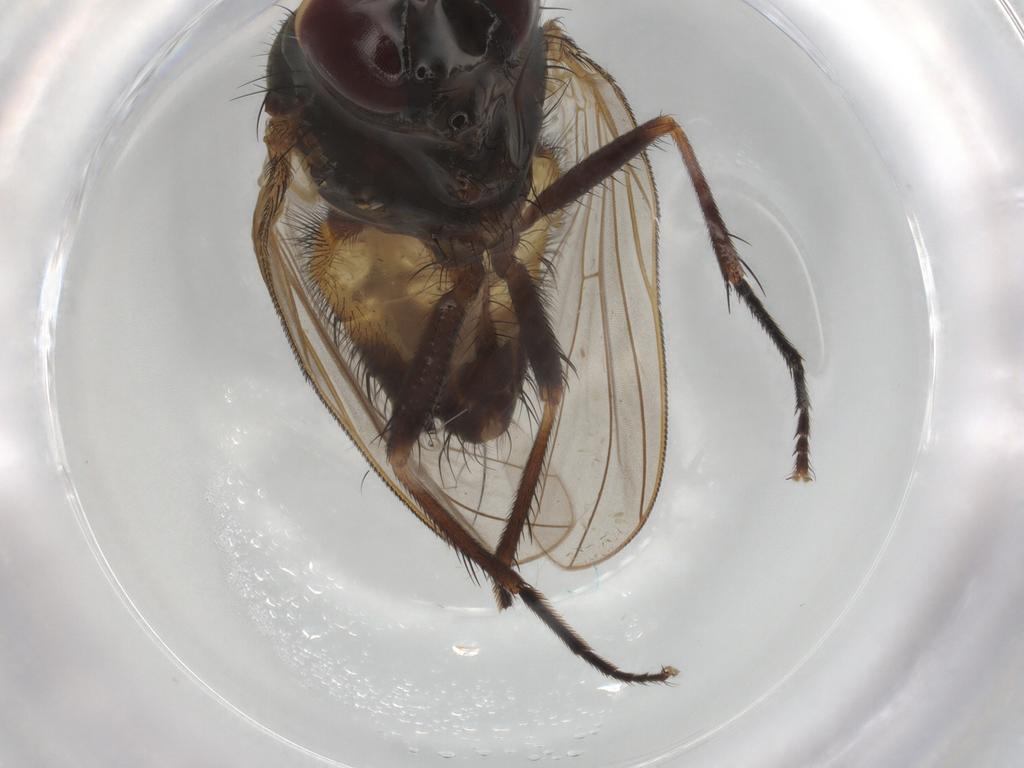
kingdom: Animalia
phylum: Arthropoda
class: Insecta
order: Diptera
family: Fannia
